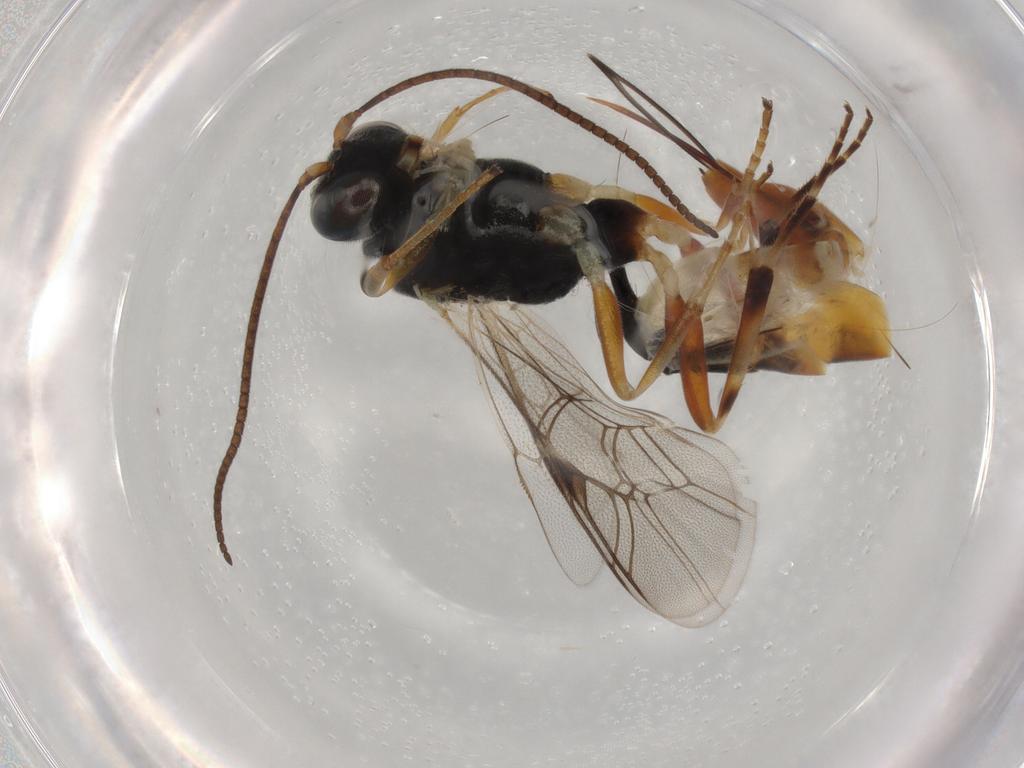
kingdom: Animalia
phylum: Arthropoda
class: Insecta
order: Hymenoptera
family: Ichneumonidae
